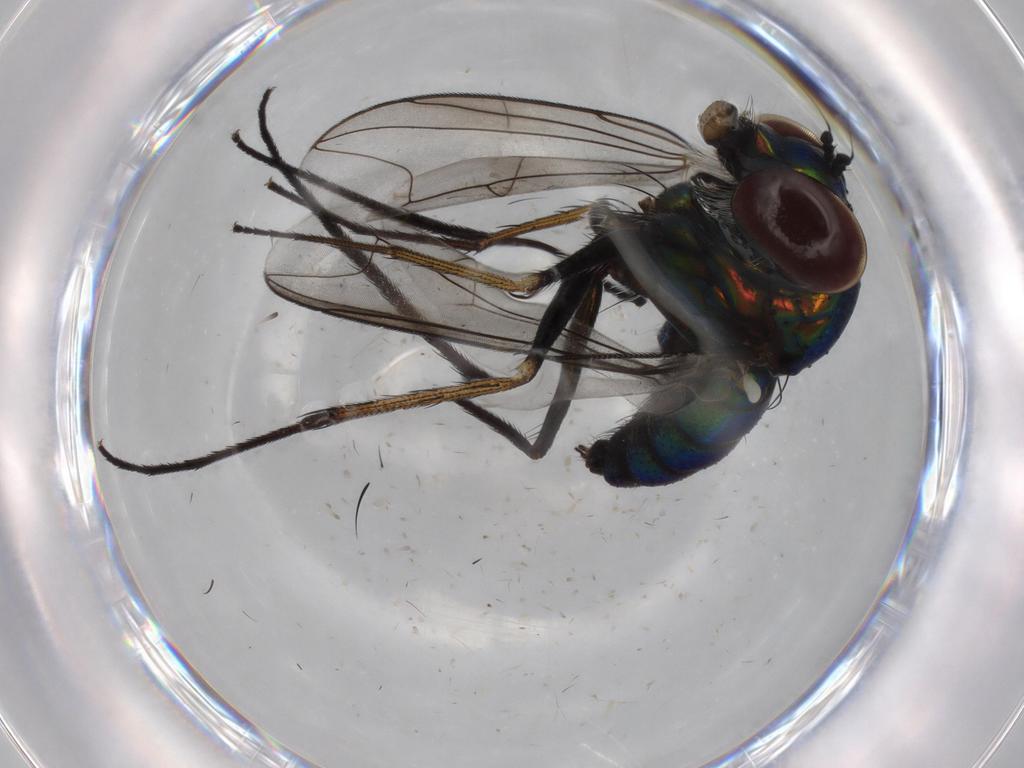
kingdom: Animalia
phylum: Arthropoda
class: Insecta
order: Diptera
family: Dolichopodidae
